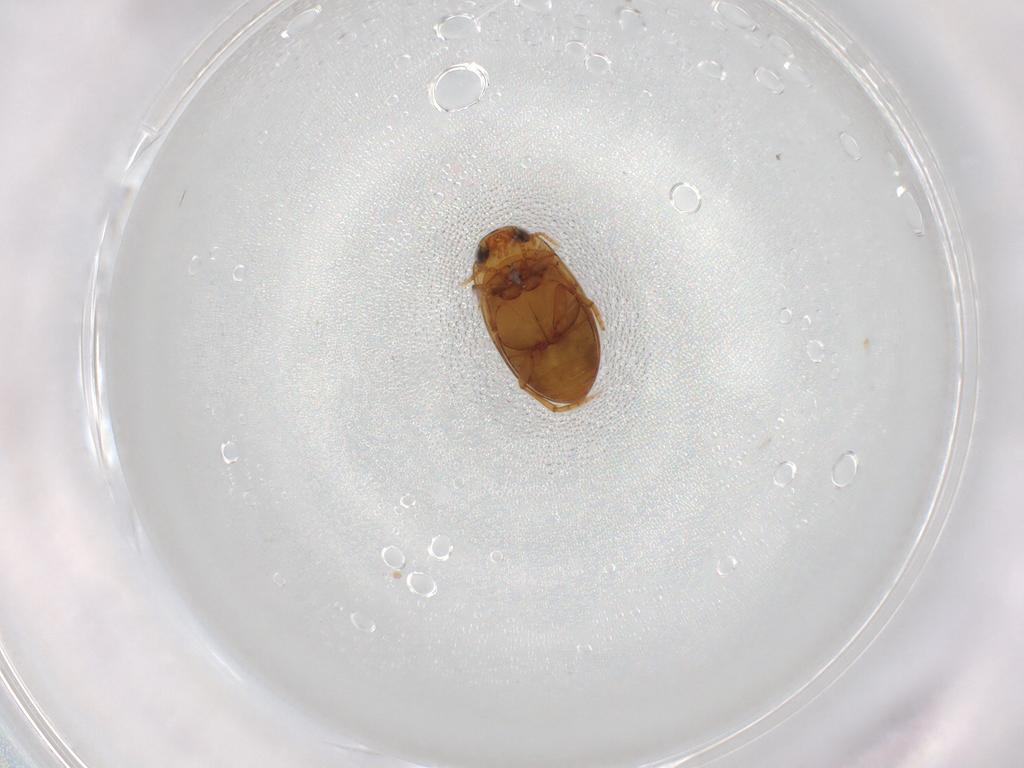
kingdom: Animalia
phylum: Arthropoda
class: Insecta
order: Coleoptera
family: Dytiscidae
